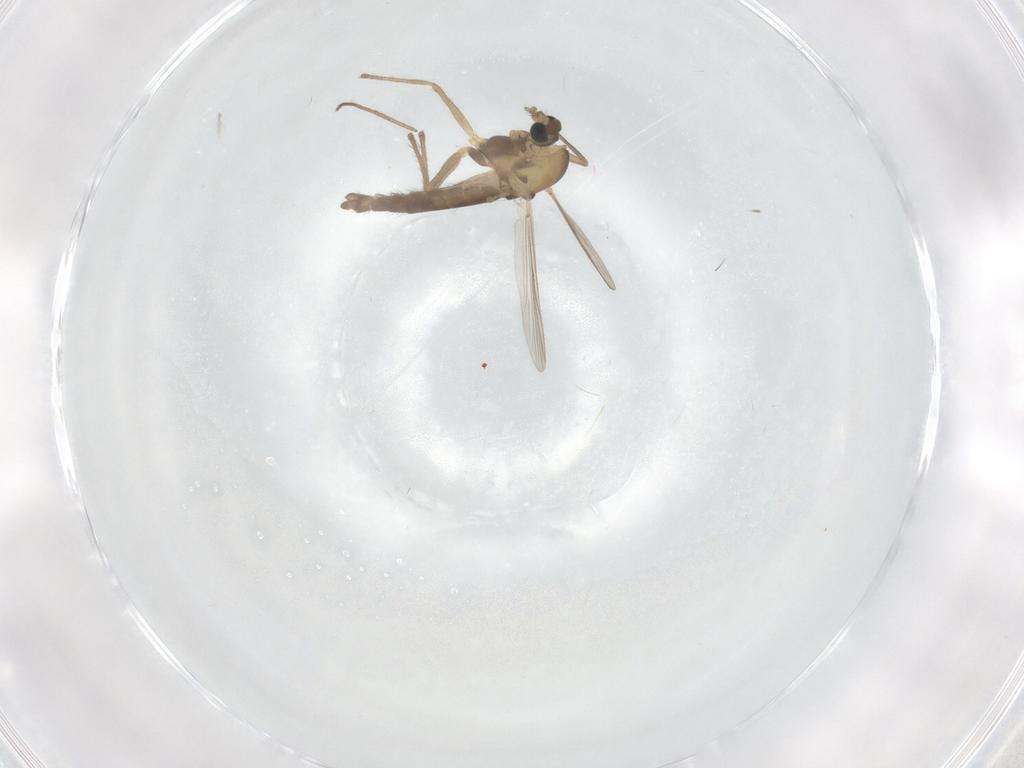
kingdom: Animalia
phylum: Arthropoda
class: Insecta
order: Diptera
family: Chironomidae
